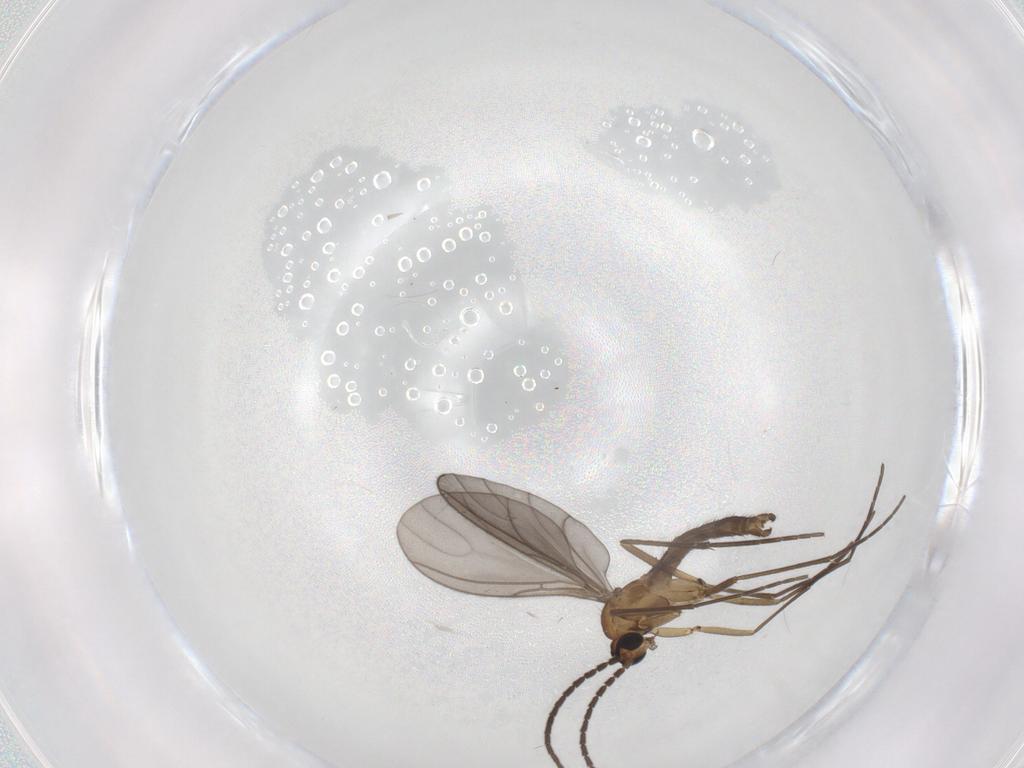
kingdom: Animalia
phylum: Arthropoda
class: Insecta
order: Diptera
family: Sciaridae
